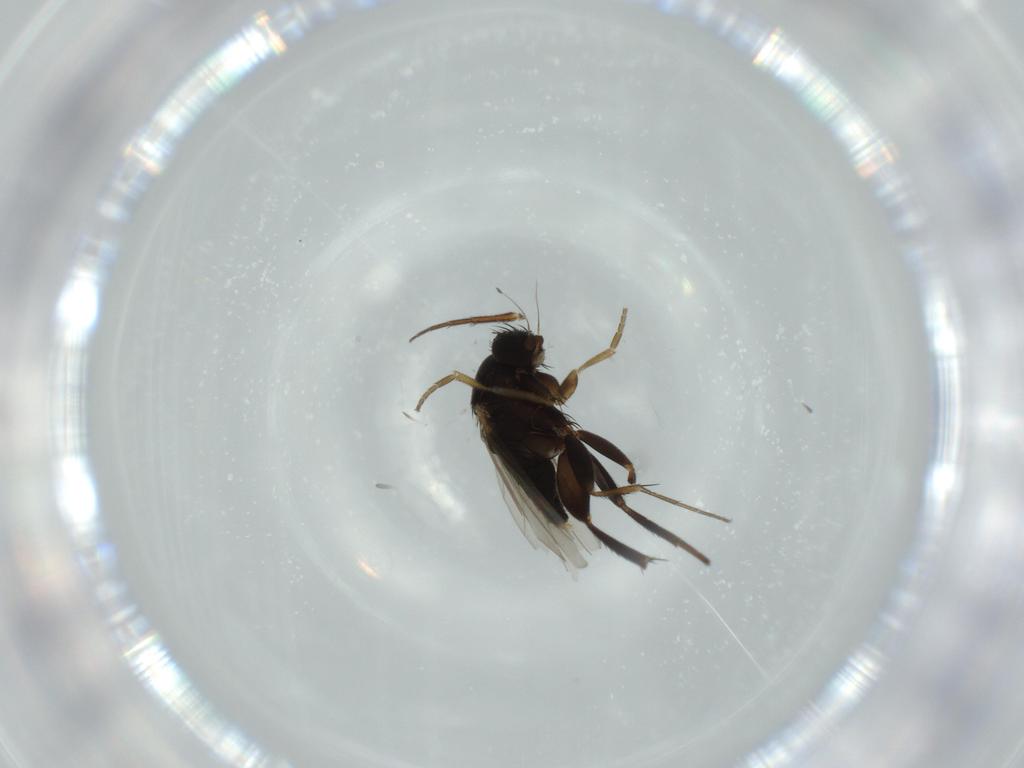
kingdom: Animalia
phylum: Arthropoda
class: Insecta
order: Diptera
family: Phoridae
